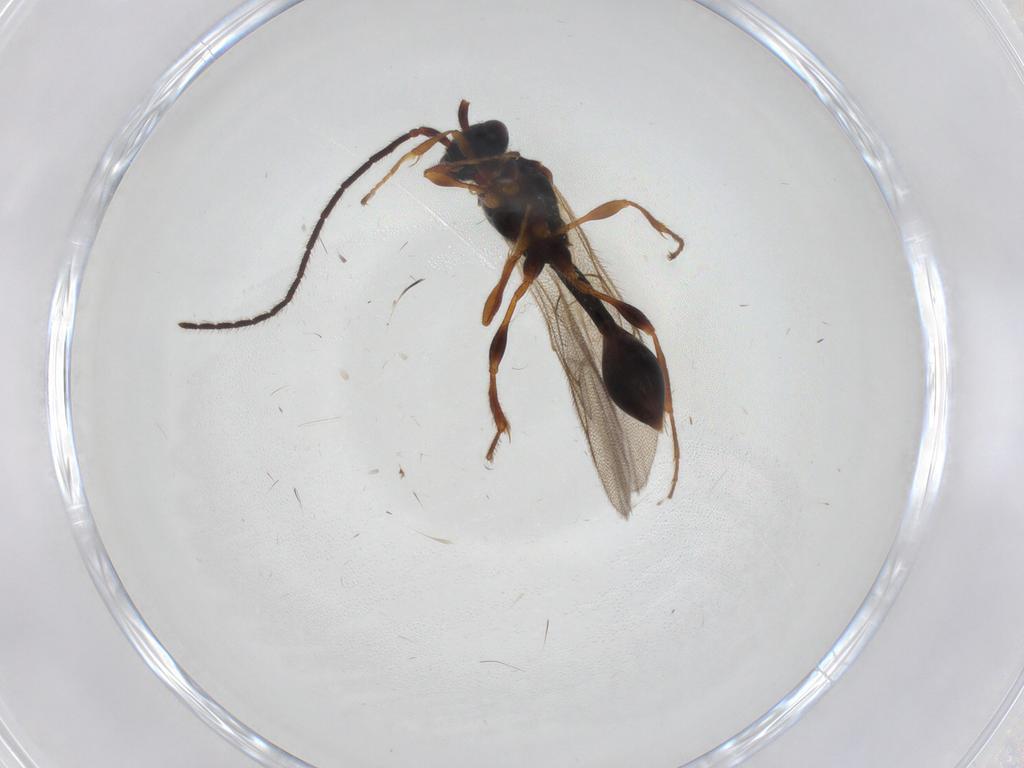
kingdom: Animalia
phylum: Arthropoda
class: Insecta
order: Hymenoptera
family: Diapriidae
